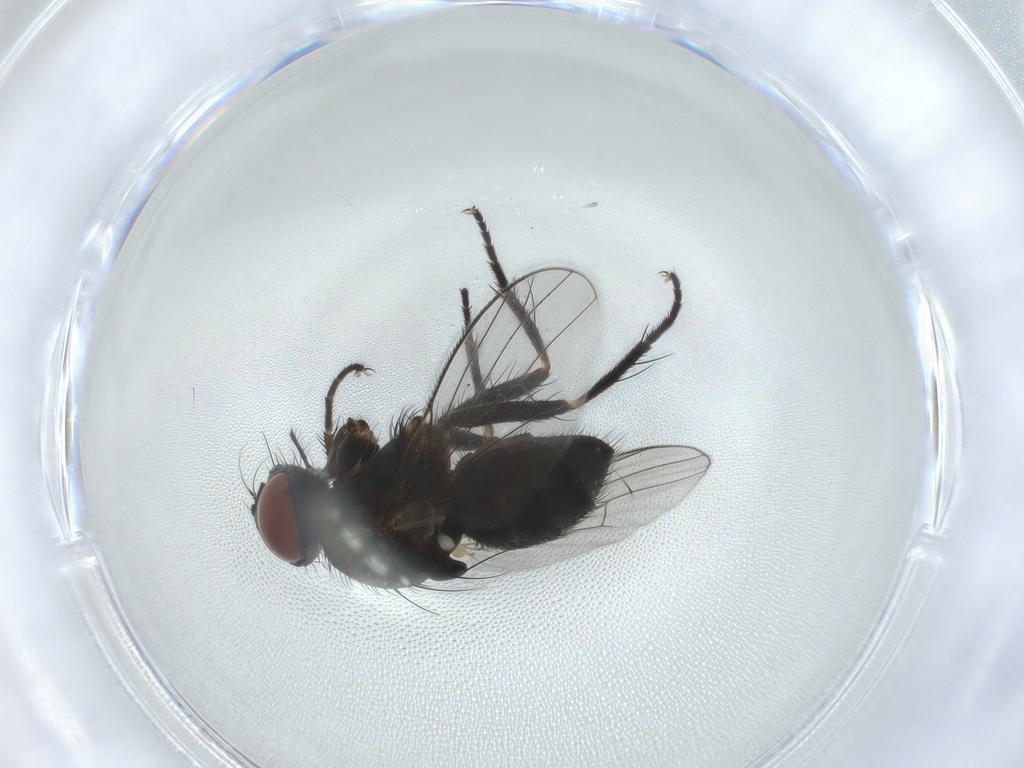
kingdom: Animalia
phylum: Arthropoda
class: Insecta
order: Diptera
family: Muscidae
